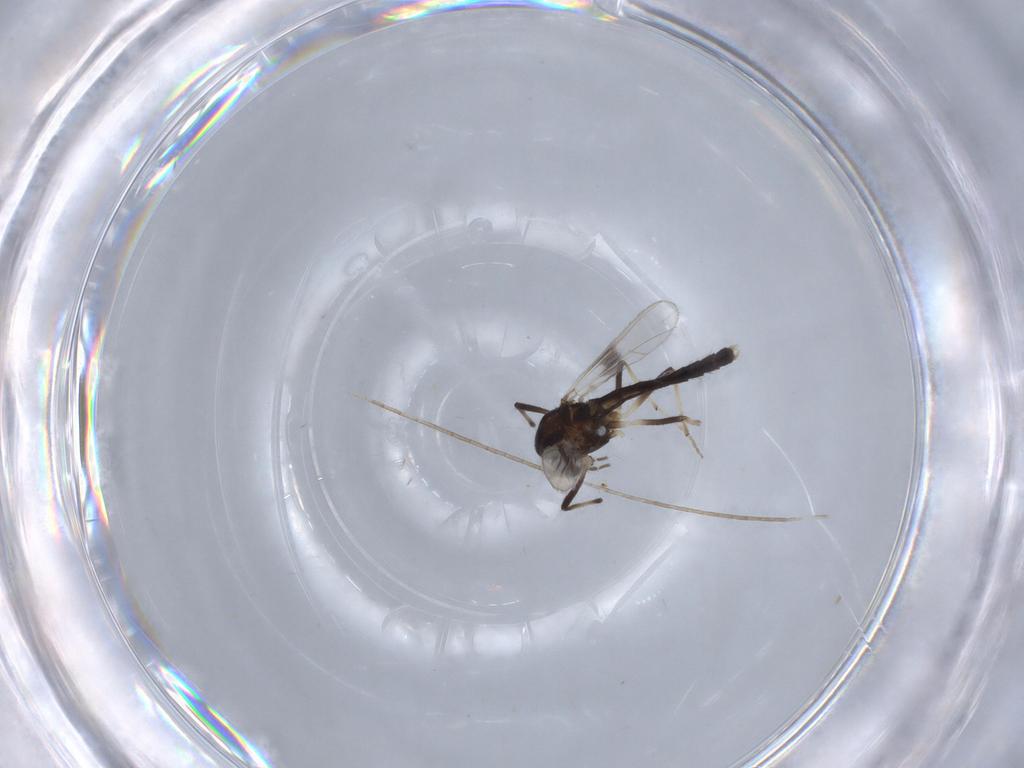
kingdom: Animalia
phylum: Arthropoda
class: Insecta
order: Diptera
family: Chironomidae
